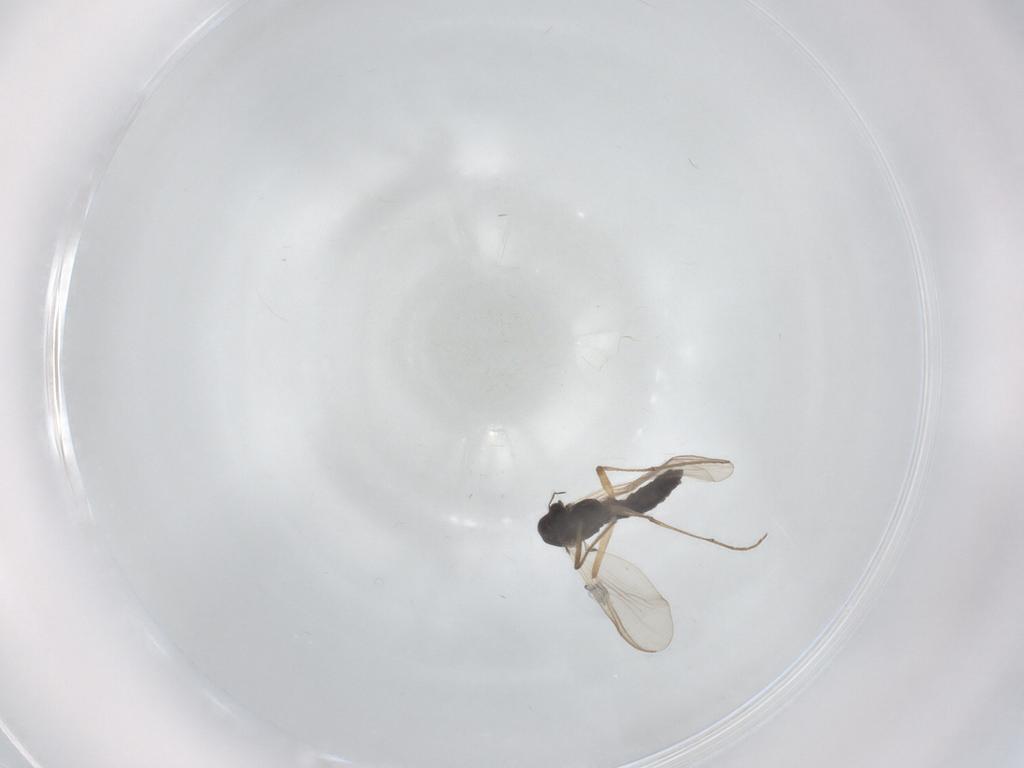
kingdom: Animalia
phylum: Arthropoda
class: Insecta
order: Diptera
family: Chironomidae
